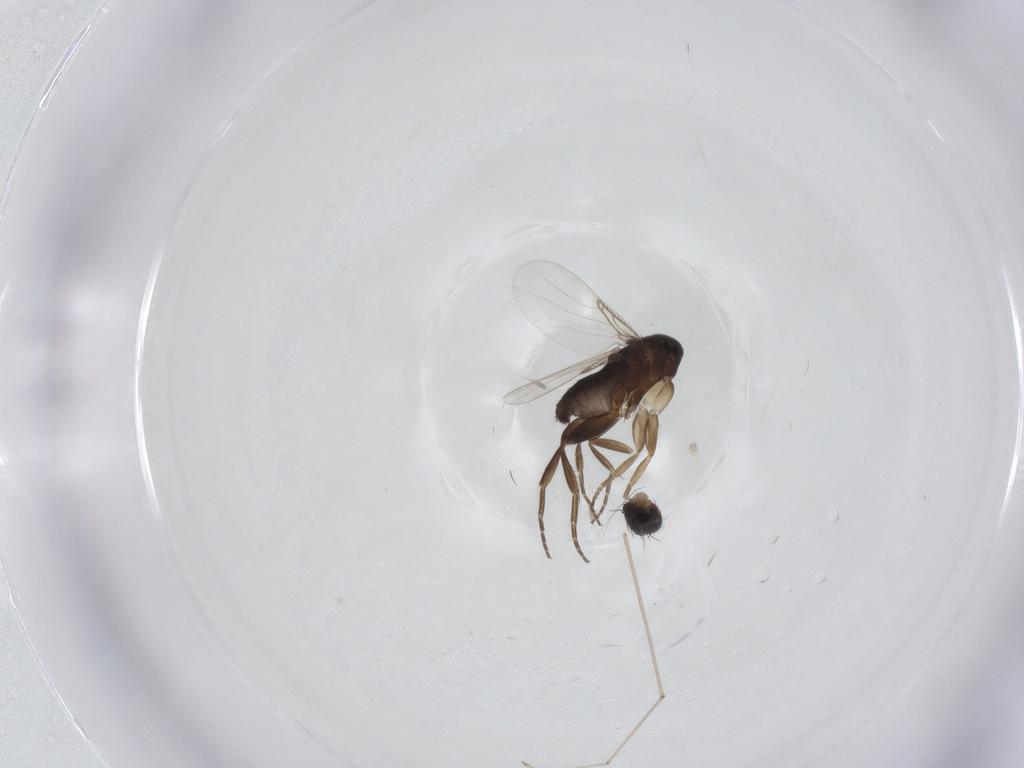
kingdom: Animalia
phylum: Arthropoda
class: Insecta
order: Diptera
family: Phoridae
